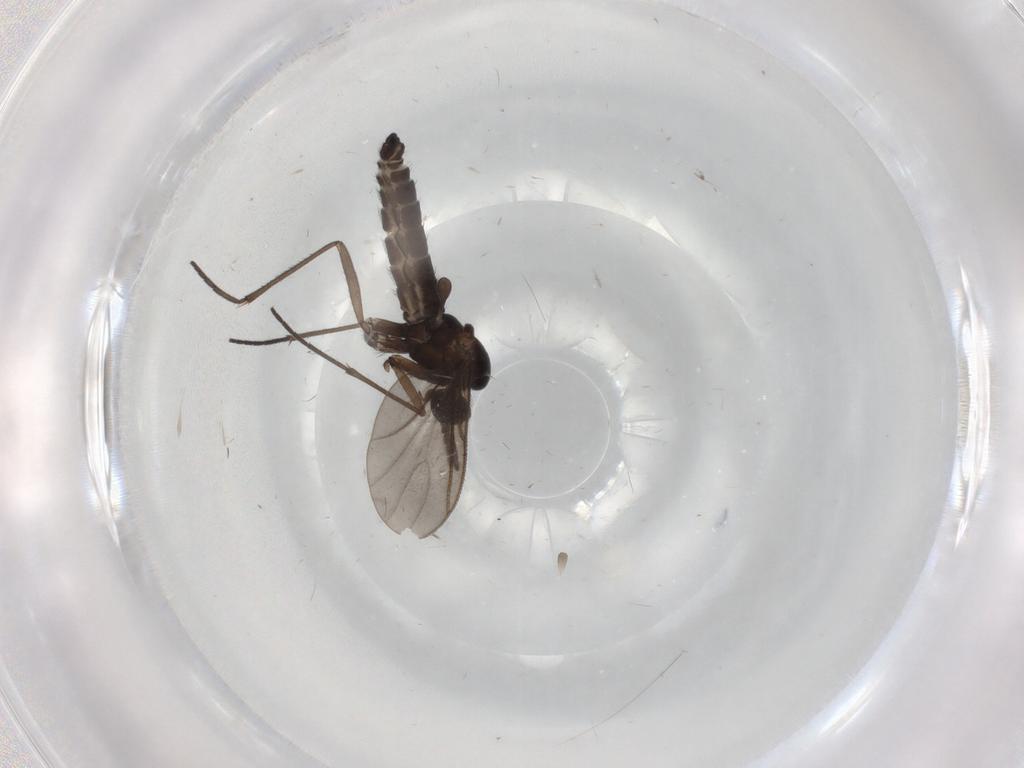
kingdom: Animalia
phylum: Arthropoda
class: Insecta
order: Diptera
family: Sciaridae
